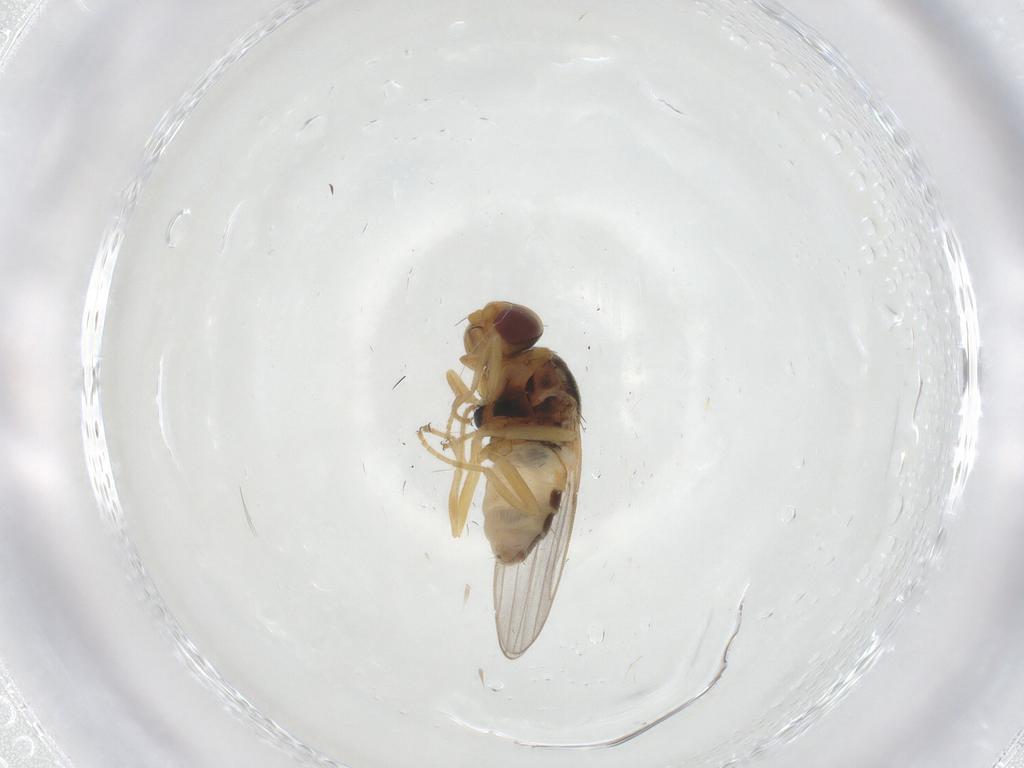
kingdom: Animalia
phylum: Arthropoda
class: Insecta
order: Diptera
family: Chloropidae
